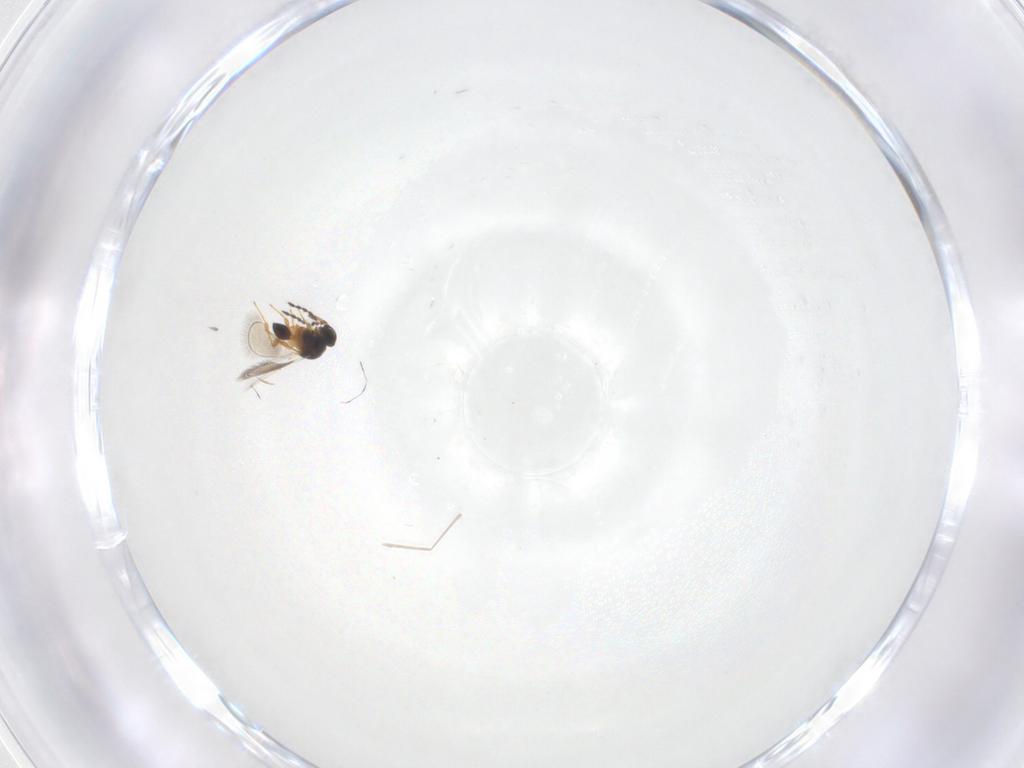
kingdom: Animalia
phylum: Arthropoda
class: Insecta
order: Hymenoptera
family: Platygastridae
